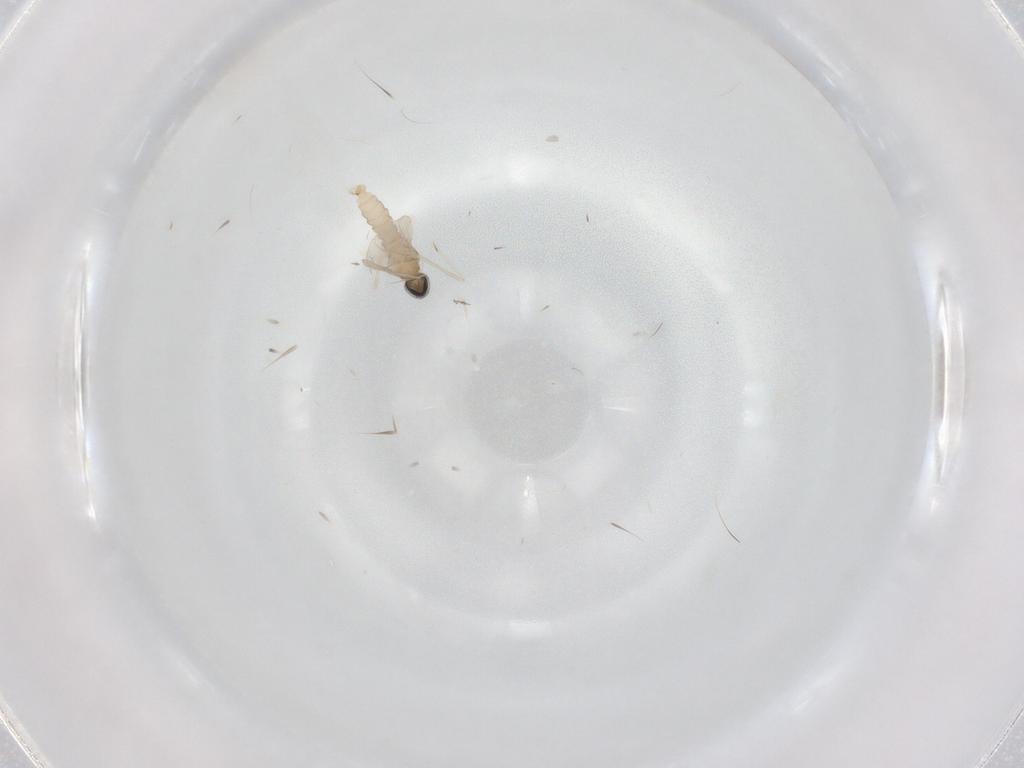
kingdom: Animalia
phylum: Arthropoda
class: Insecta
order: Diptera
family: Cecidomyiidae
